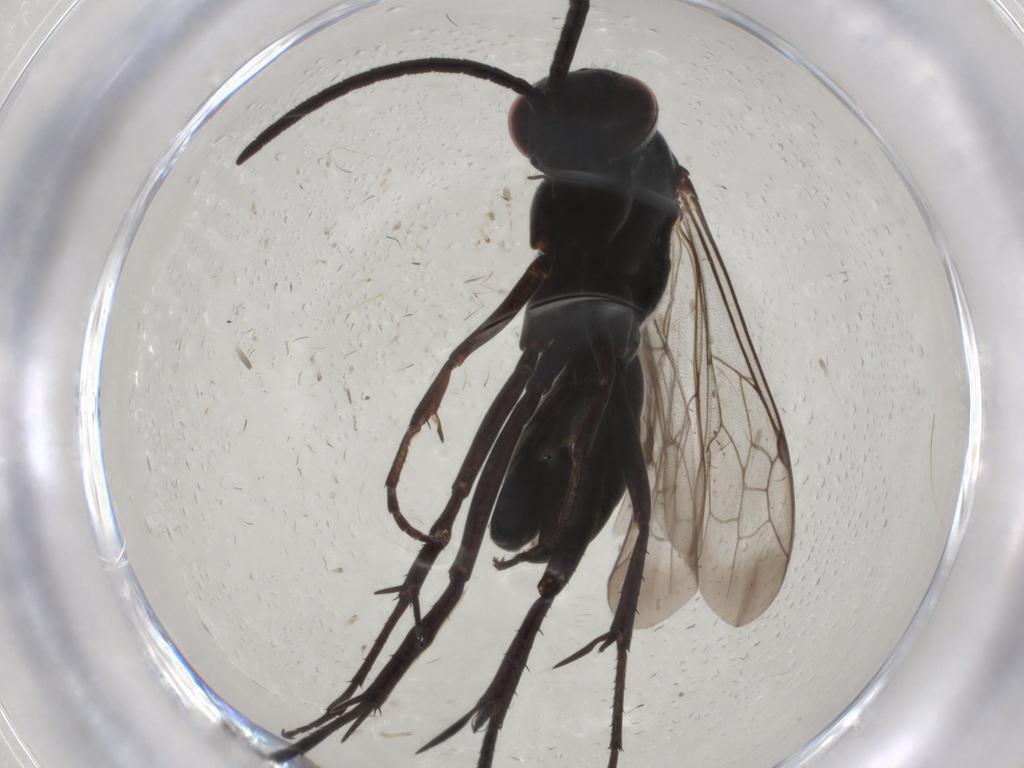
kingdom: Animalia
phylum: Arthropoda
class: Insecta
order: Hymenoptera
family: Pompilidae
